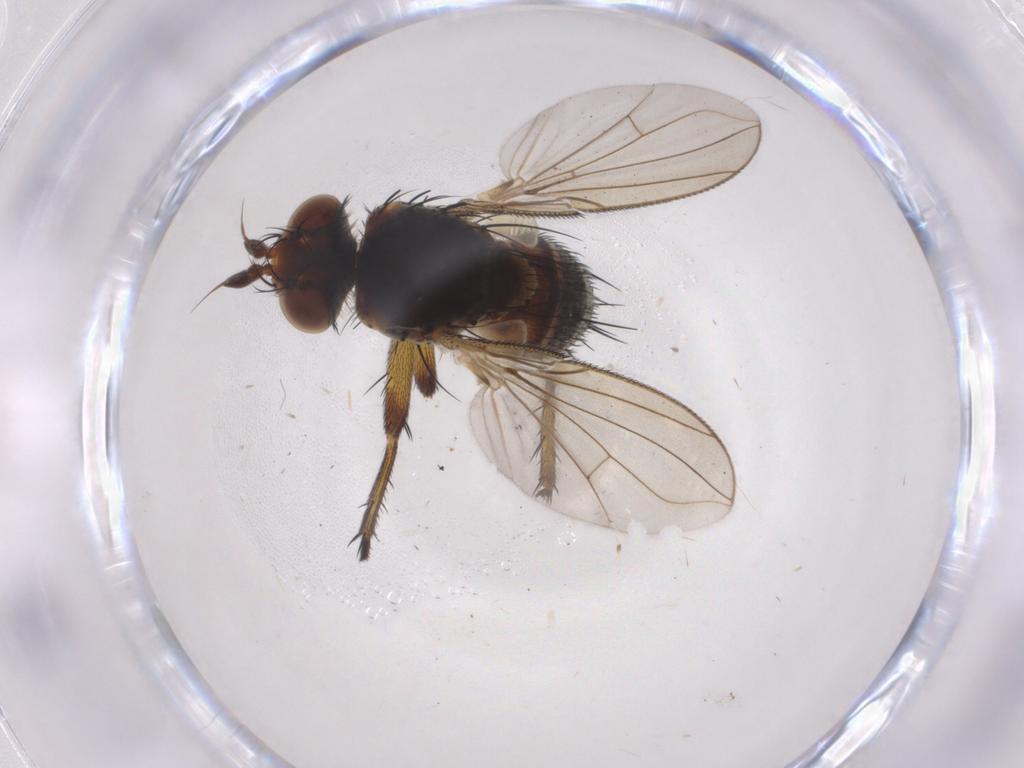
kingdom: Animalia
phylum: Arthropoda
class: Insecta
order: Diptera
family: Tachinidae
